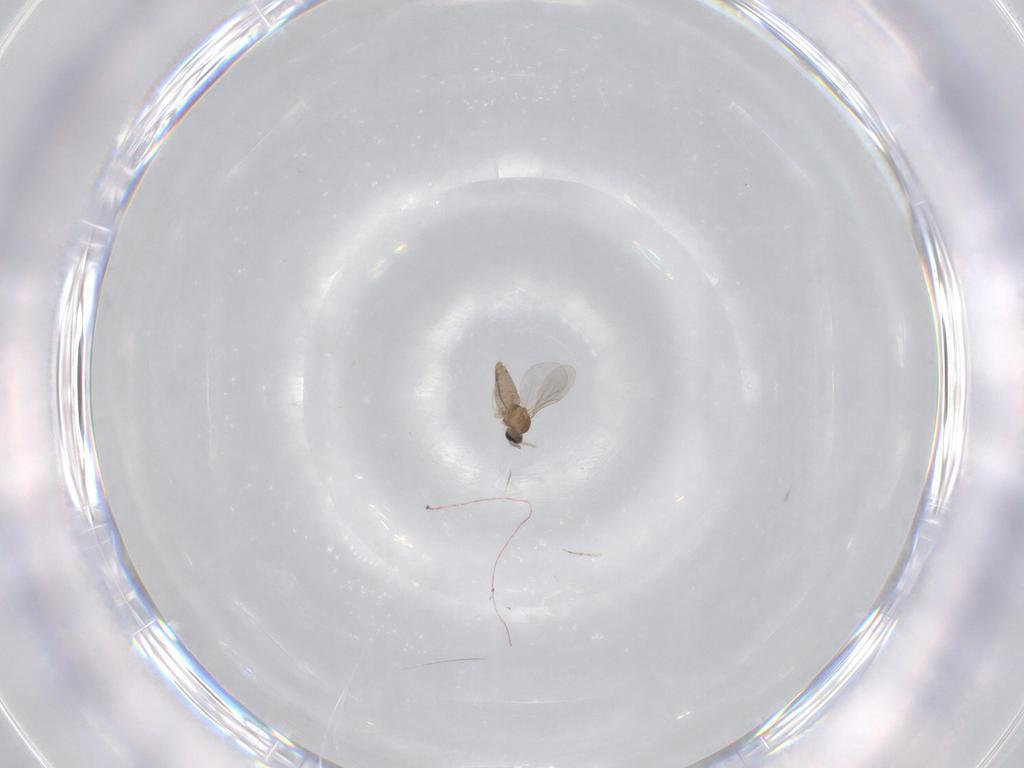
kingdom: Animalia
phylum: Arthropoda
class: Insecta
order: Diptera
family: Cecidomyiidae
